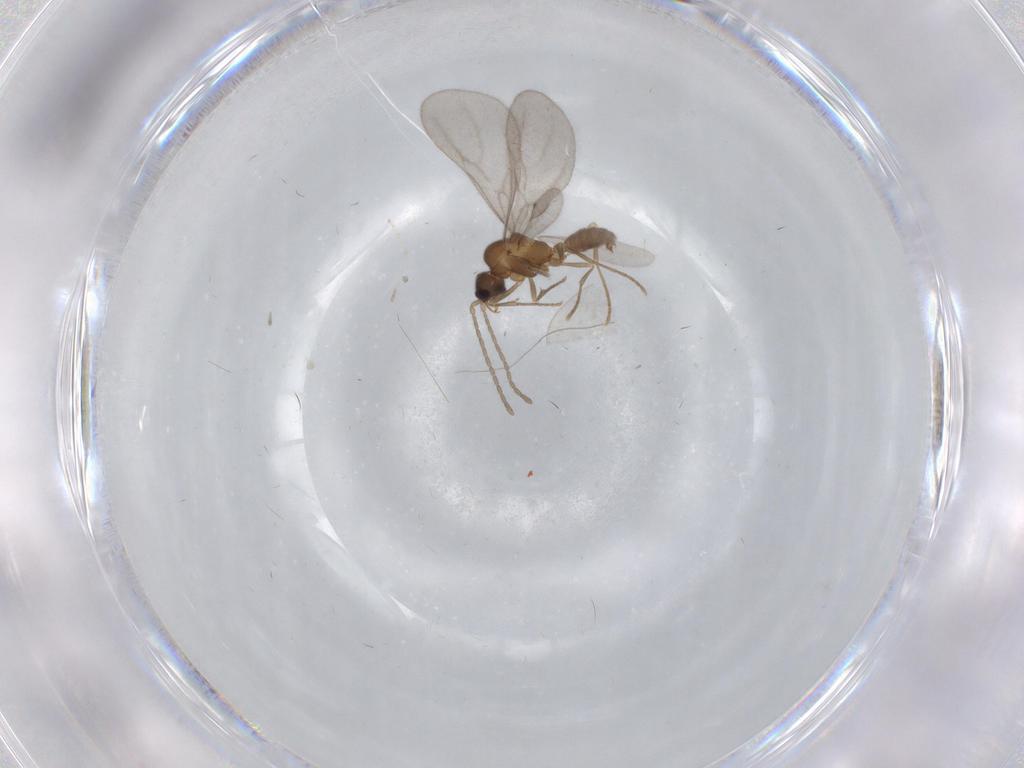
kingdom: Animalia
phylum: Arthropoda
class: Insecta
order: Hymenoptera
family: Formicidae
